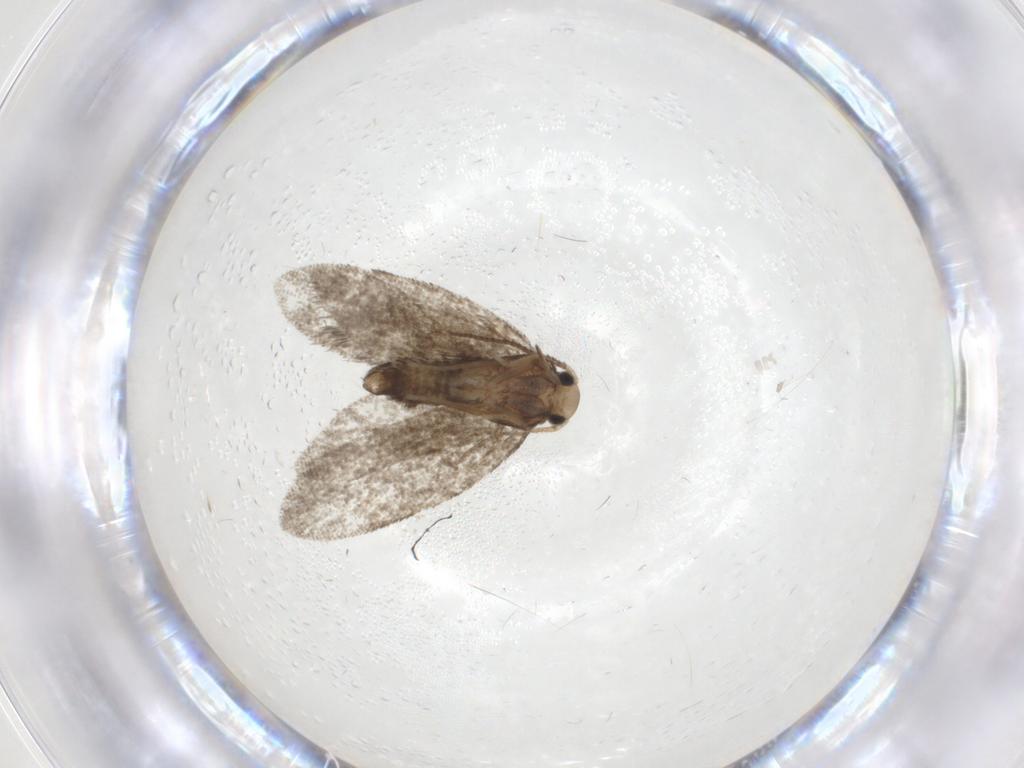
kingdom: Animalia
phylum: Arthropoda
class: Insecta
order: Lepidoptera
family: Psychidae
